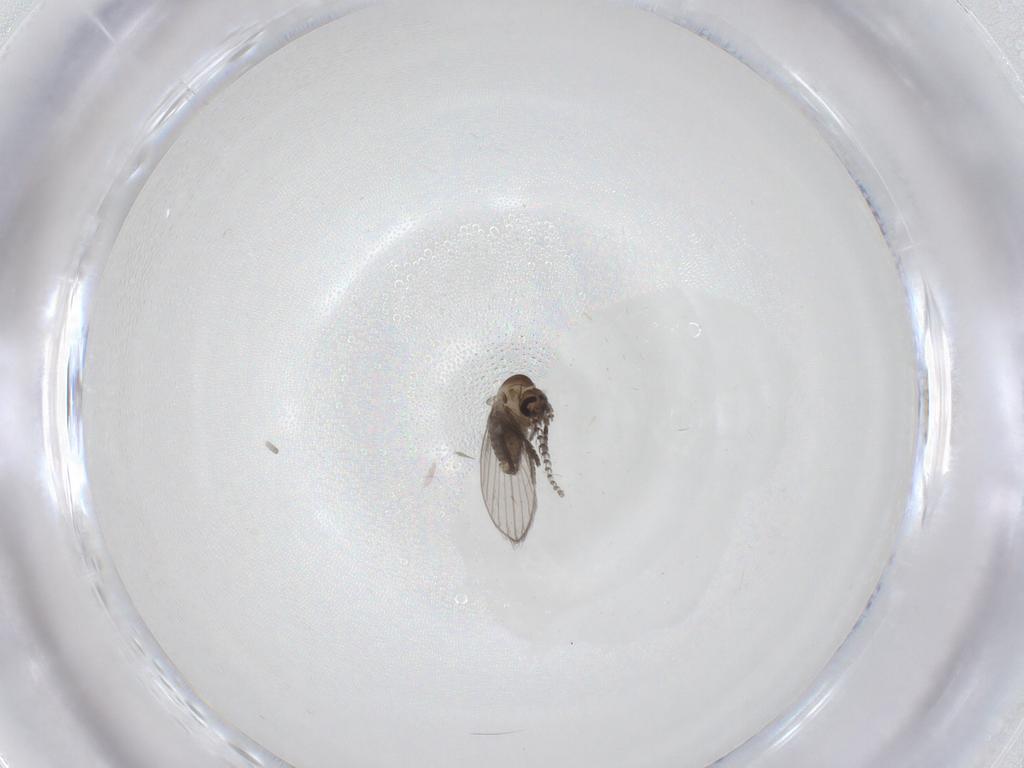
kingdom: Animalia
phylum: Arthropoda
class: Insecta
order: Diptera
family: Psychodidae
